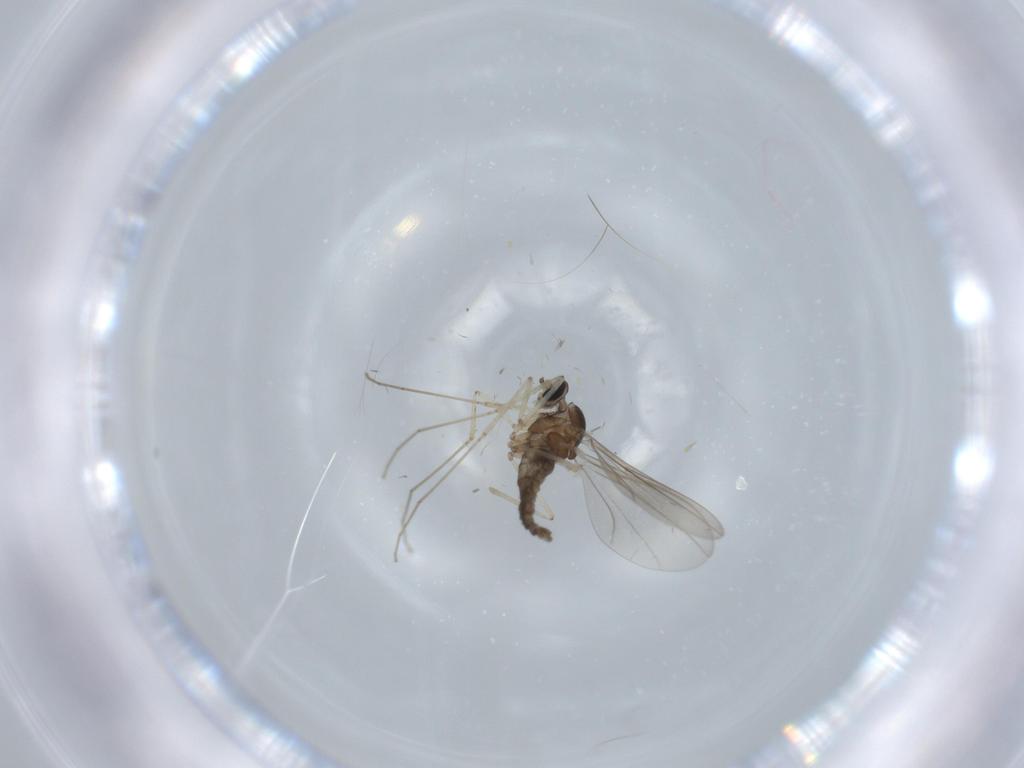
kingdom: Animalia
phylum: Arthropoda
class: Insecta
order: Diptera
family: Cecidomyiidae
